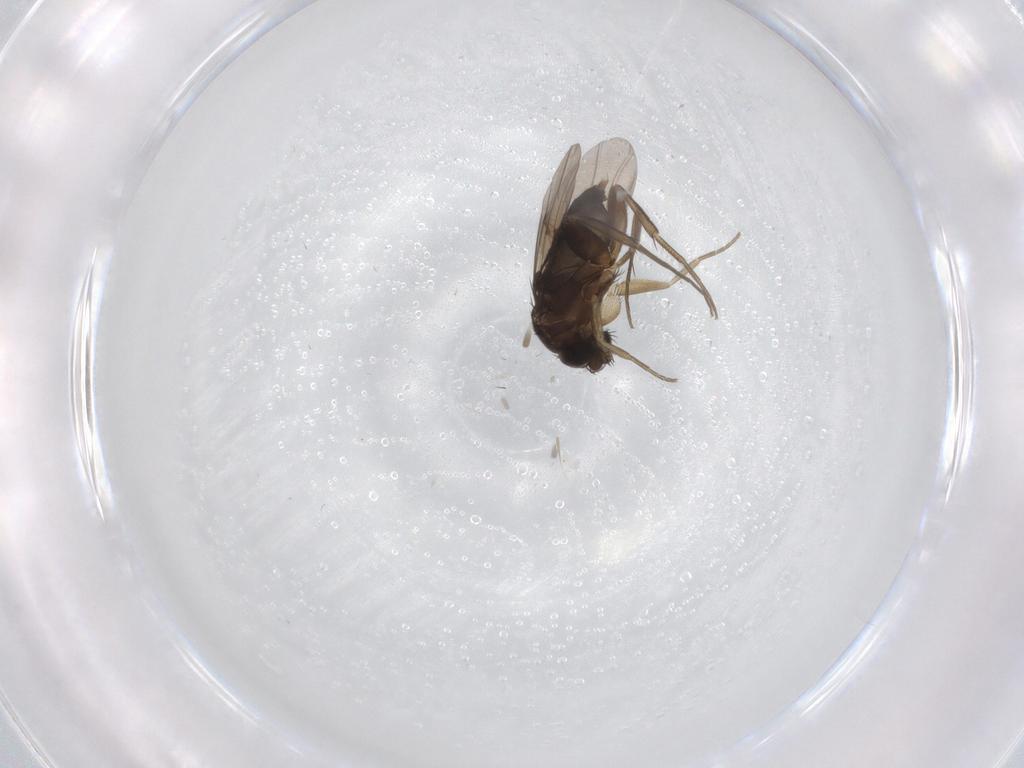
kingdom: Animalia
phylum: Arthropoda
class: Insecta
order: Diptera
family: Phoridae
